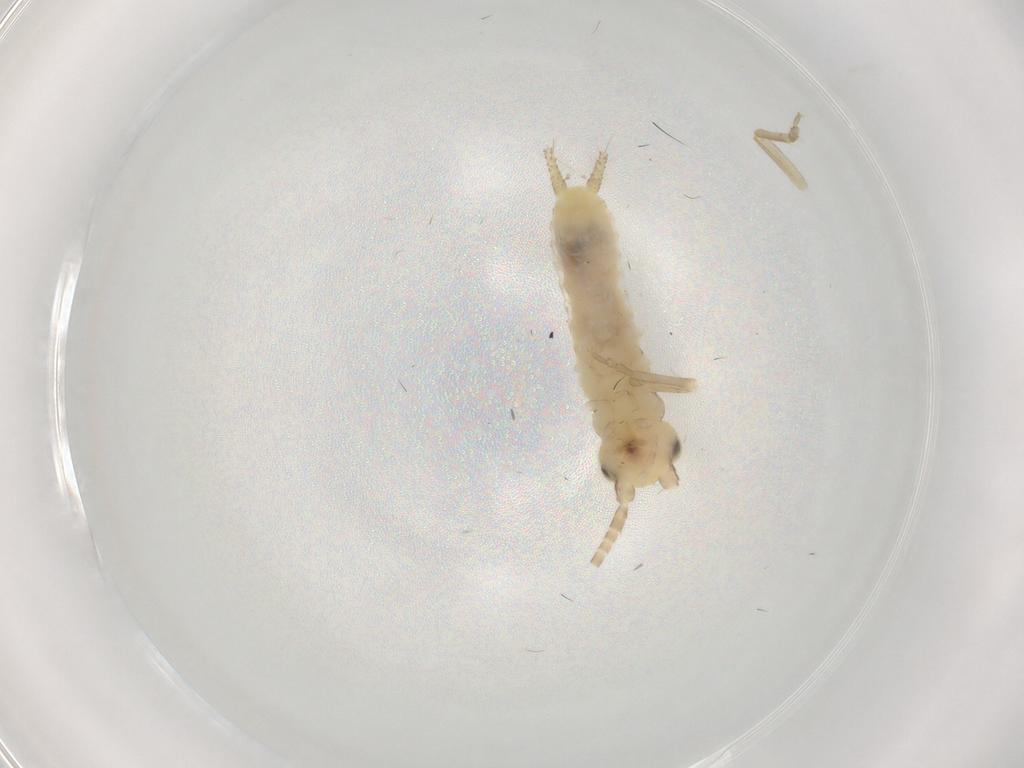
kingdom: Animalia
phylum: Arthropoda
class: Insecta
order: Orthoptera
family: Gryllidae
